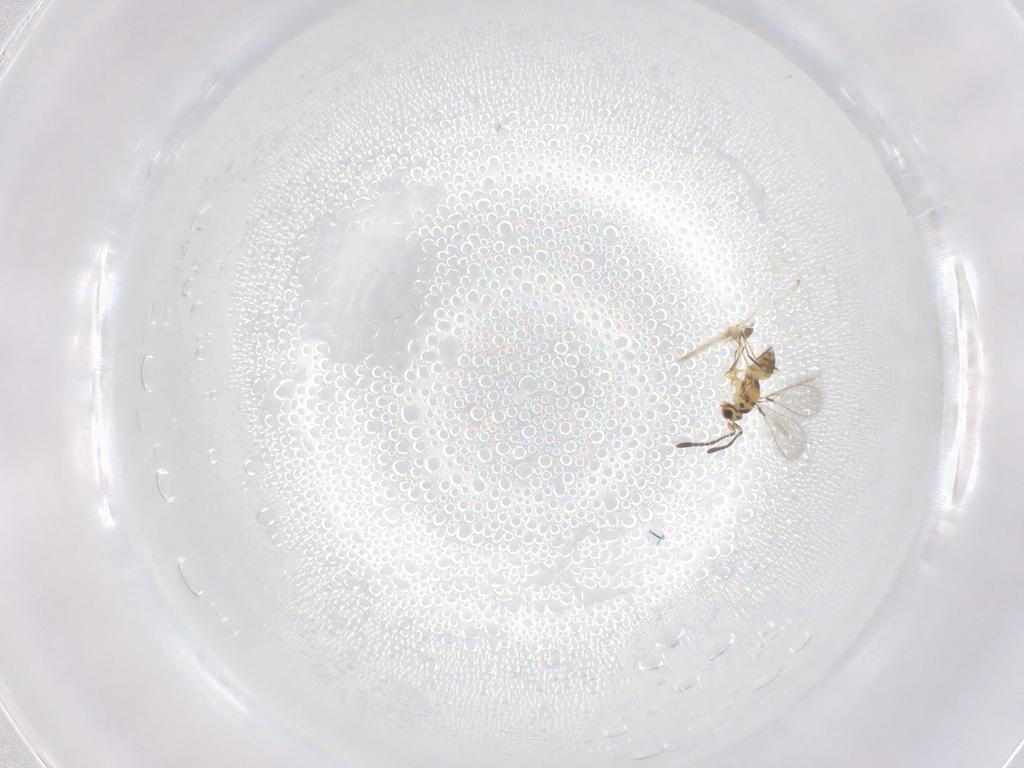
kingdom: Animalia
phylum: Arthropoda
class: Insecta
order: Hymenoptera
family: Scelionidae
